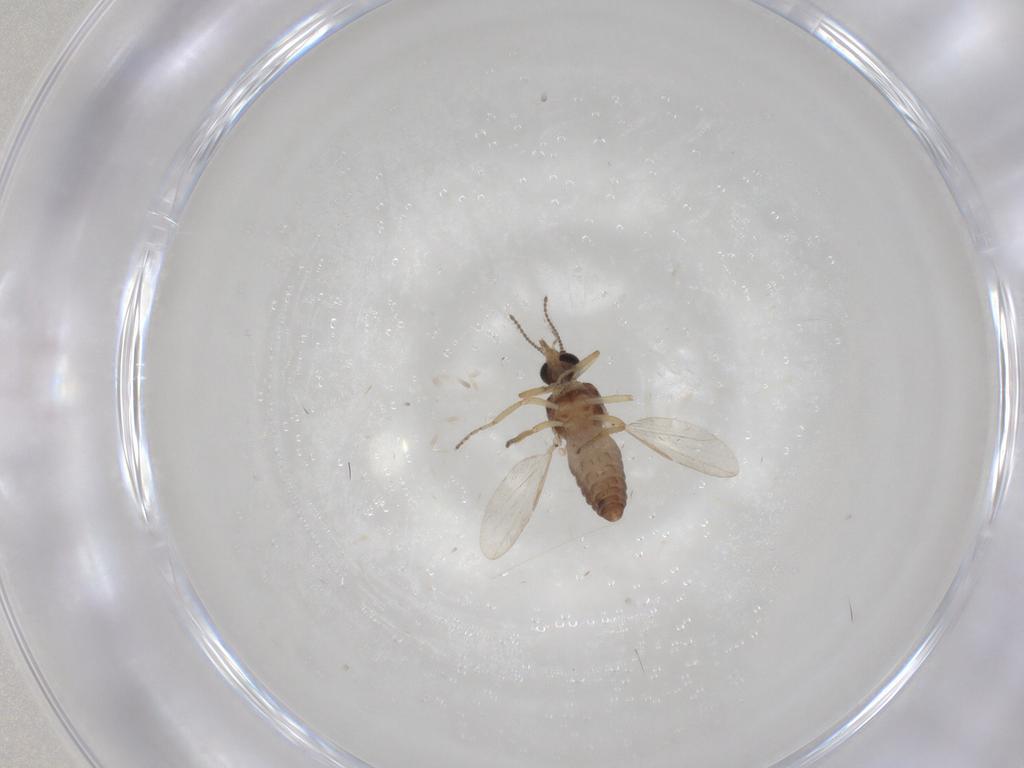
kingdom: Animalia
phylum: Arthropoda
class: Insecta
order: Diptera
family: Ceratopogonidae
